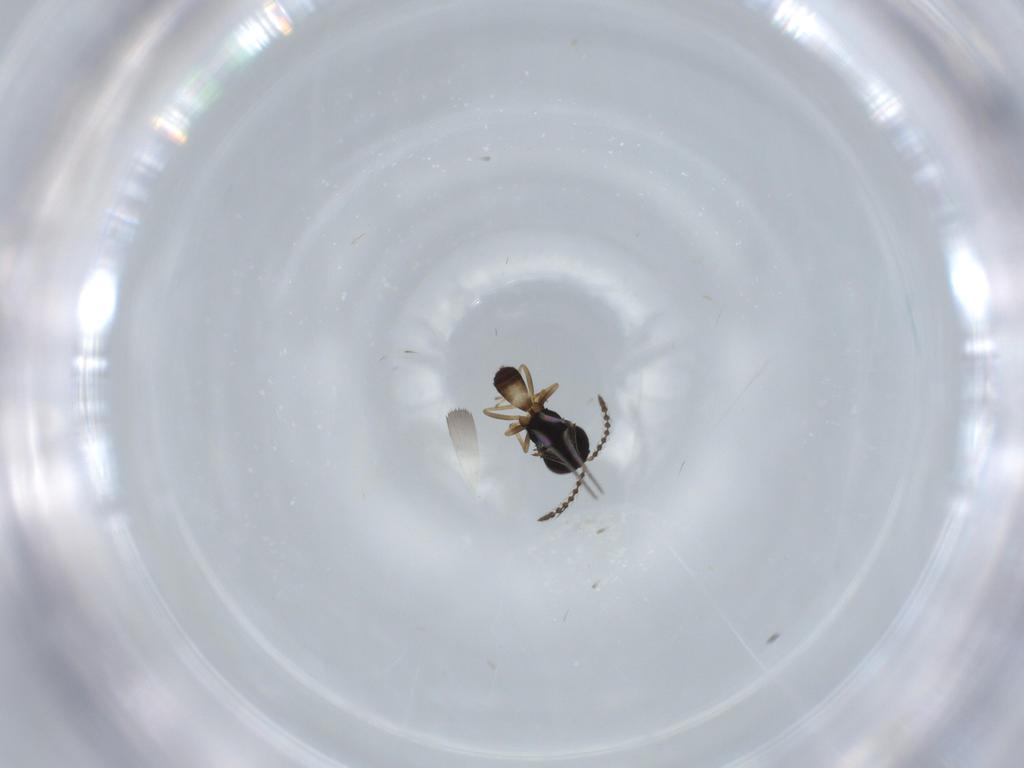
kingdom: Animalia
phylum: Arthropoda
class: Insecta
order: Hymenoptera
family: Pteromalidae
